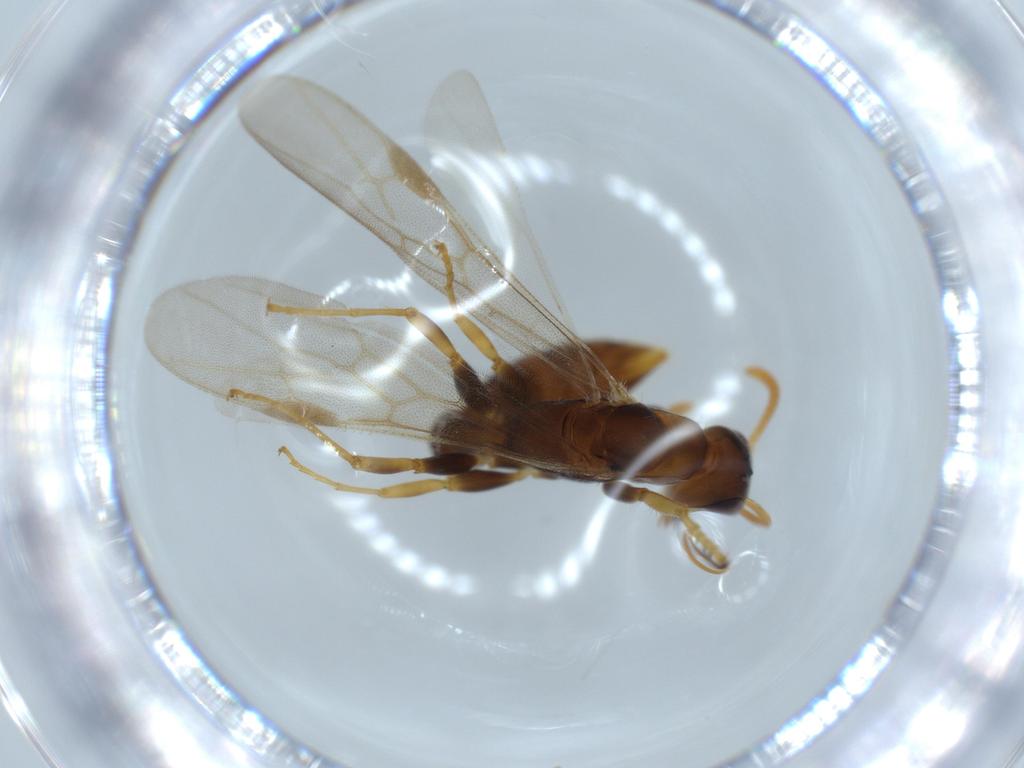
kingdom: Animalia
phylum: Arthropoda
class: Insecta
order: Hymenoptera
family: Formicidae
